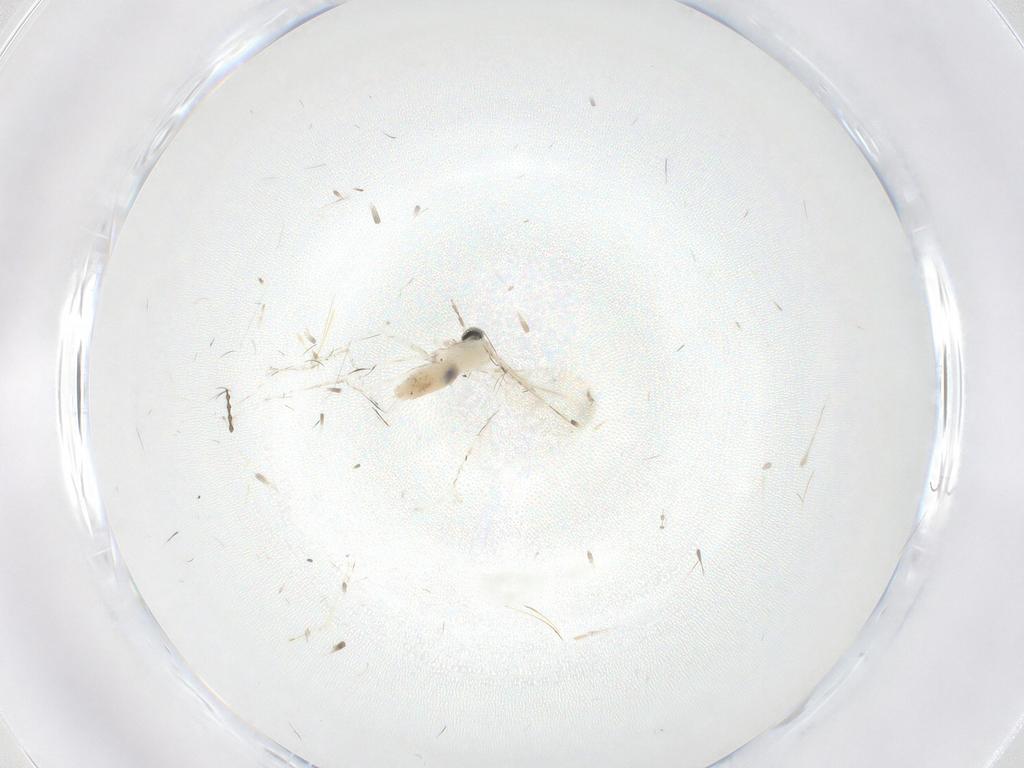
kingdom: Animalia
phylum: Arthropoda
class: Insecta
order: Diptera
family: Cecidomyiidae
